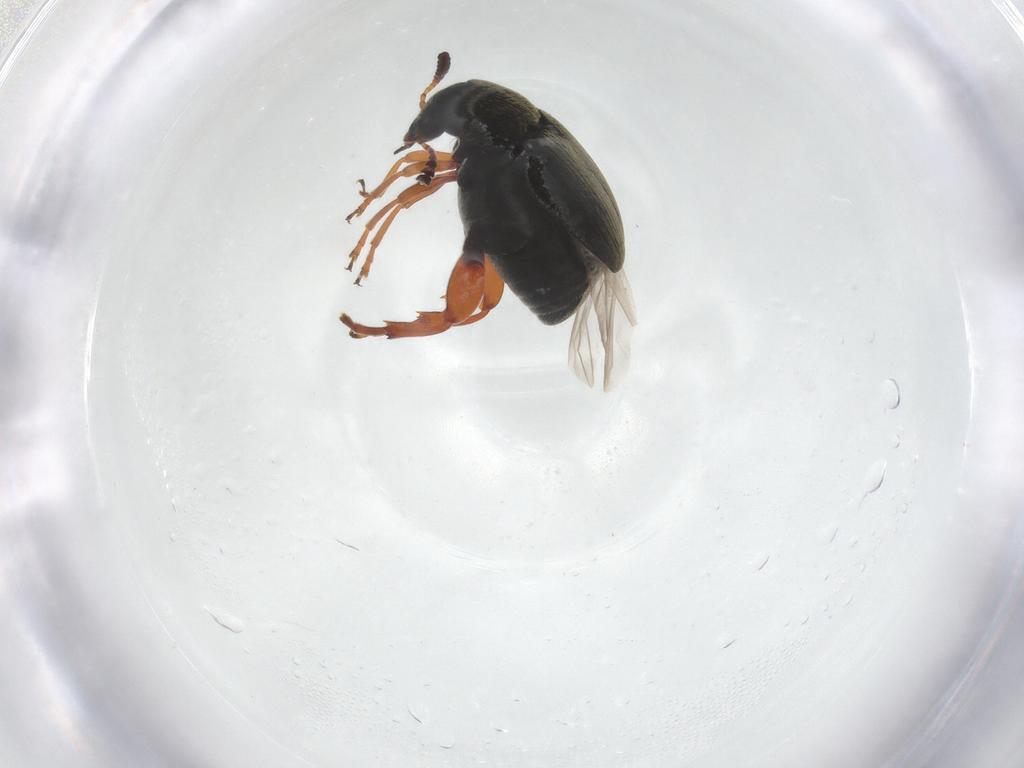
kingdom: Animalia
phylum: Arthropoda
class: Insecta
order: Coleoptera
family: Chrysomelidae
